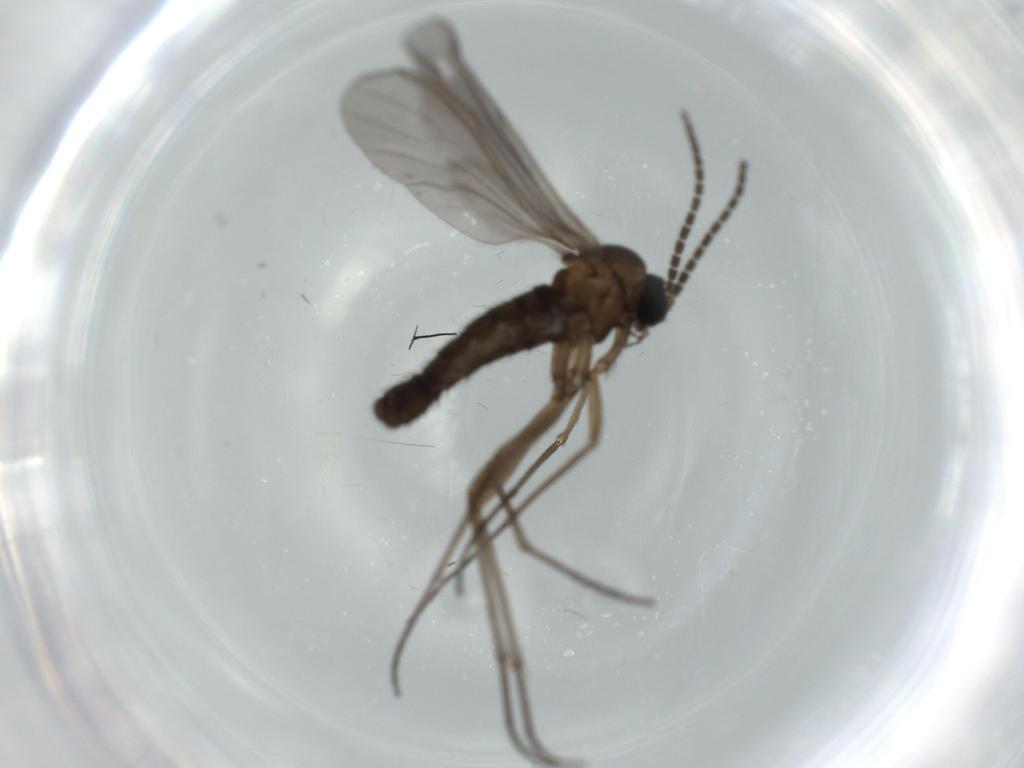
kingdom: Animalia
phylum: Arthropoda
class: Insecta
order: Diptera
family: Sciaridae
